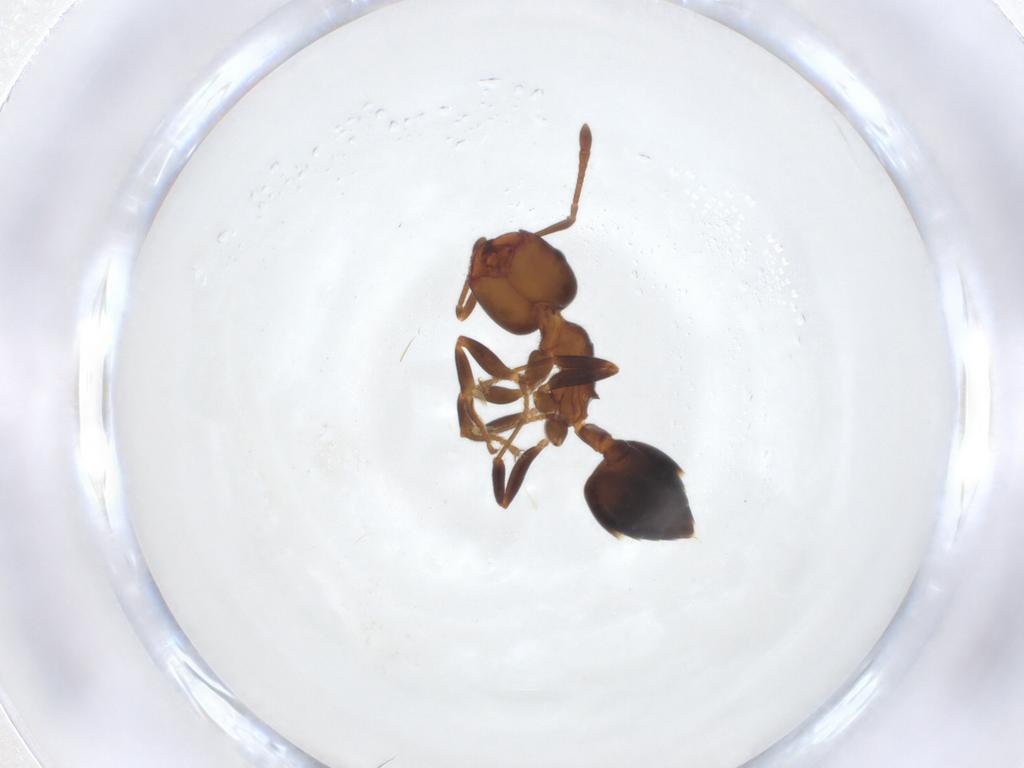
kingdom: Animalia
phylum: Arthropoda
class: Insecta
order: Hymenoptera
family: Formicidae
